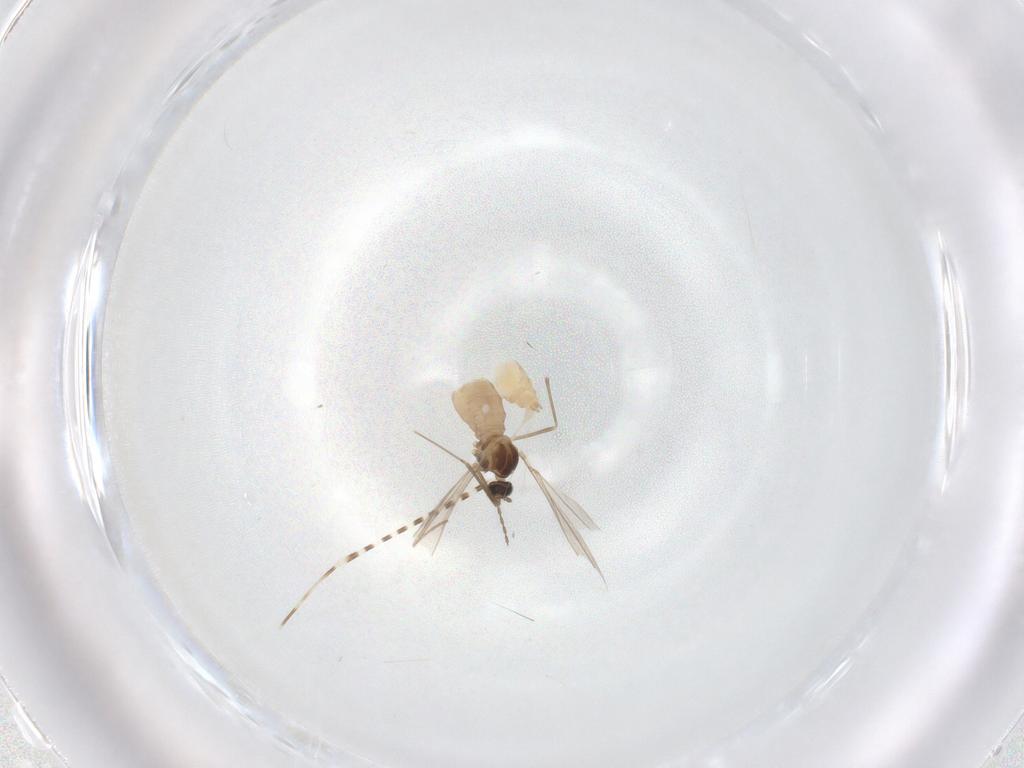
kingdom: Animalia
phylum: Arthropoda
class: Insecta
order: Diptera
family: Cecidomyiidae
